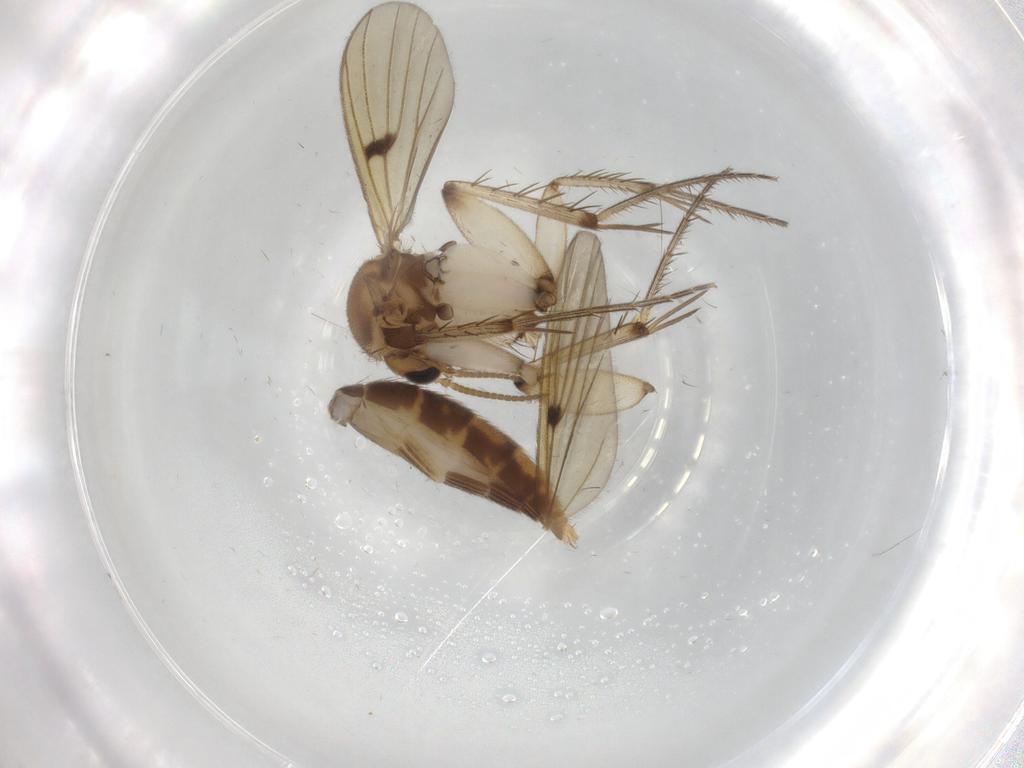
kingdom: Animalia
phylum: Arthropoda
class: Insecta
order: Diptera
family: Mycetophilidae
